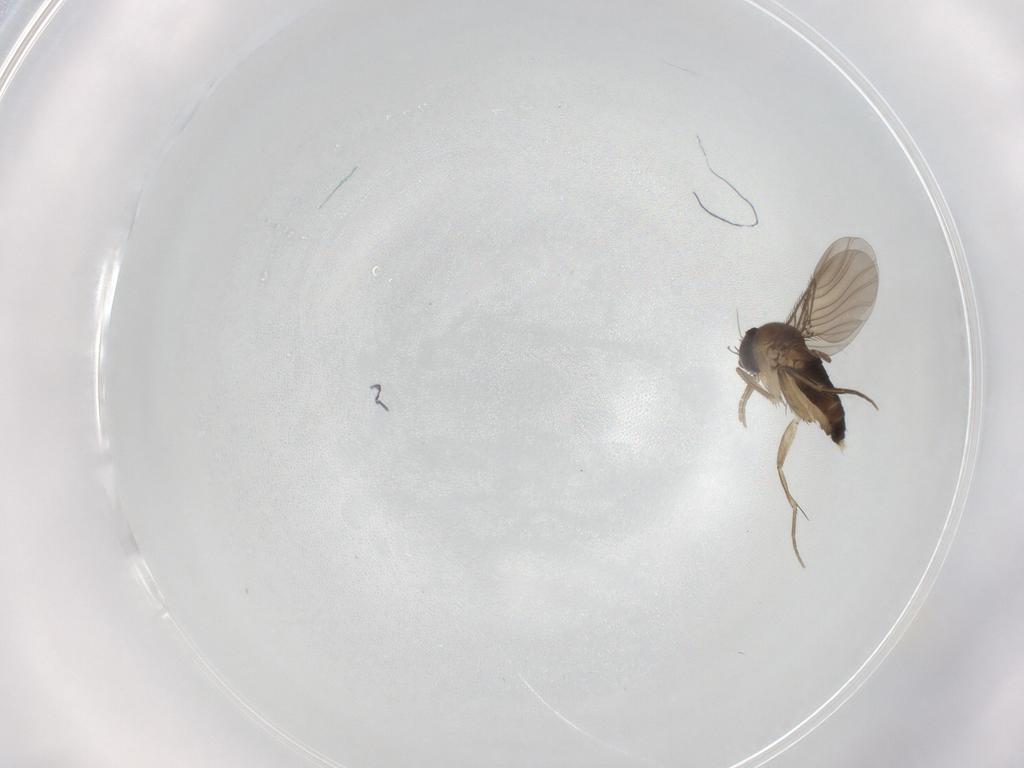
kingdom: Animalia
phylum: Arthropoda
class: Insecta
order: Diptera
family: Phoridae
